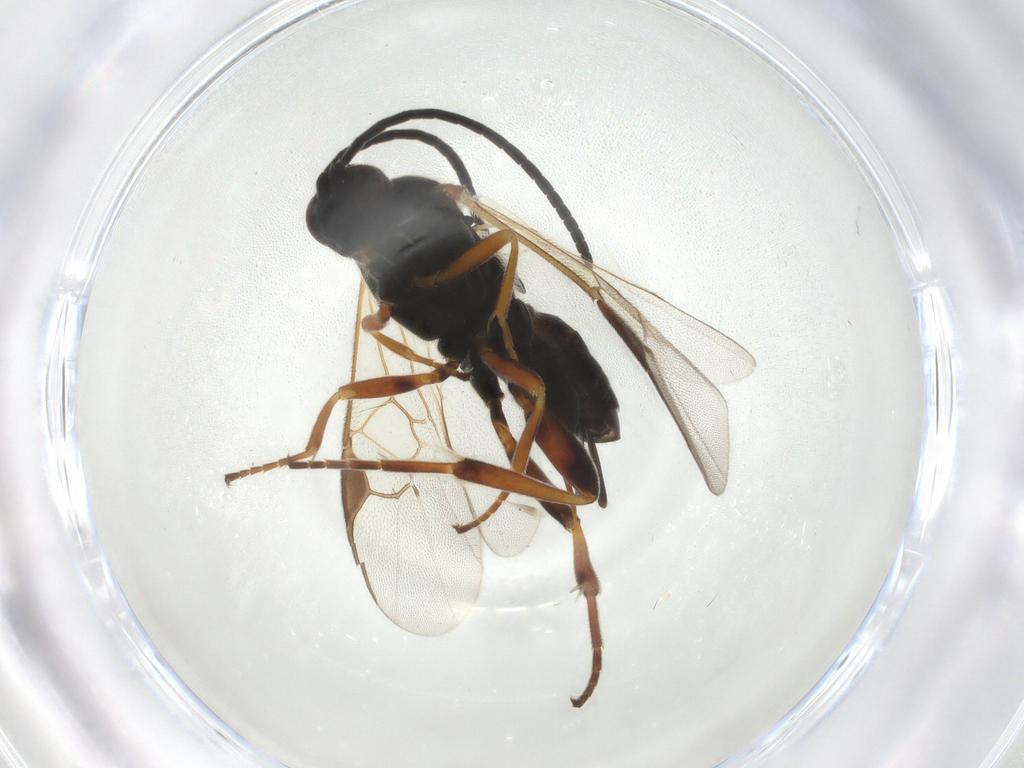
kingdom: Animalia
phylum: Arthropoda
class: Insecta
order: Hymenoptera
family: Braconidae
